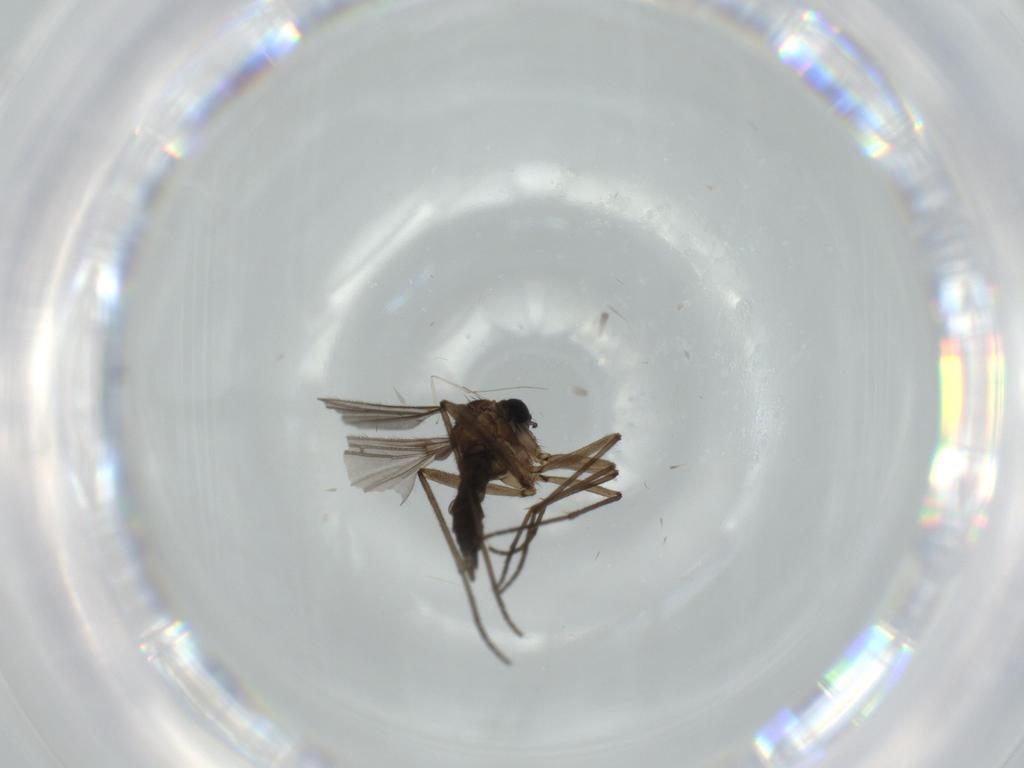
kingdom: Animalia
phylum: Arthropoda
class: Insecta
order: Diptera
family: Sciaridae
